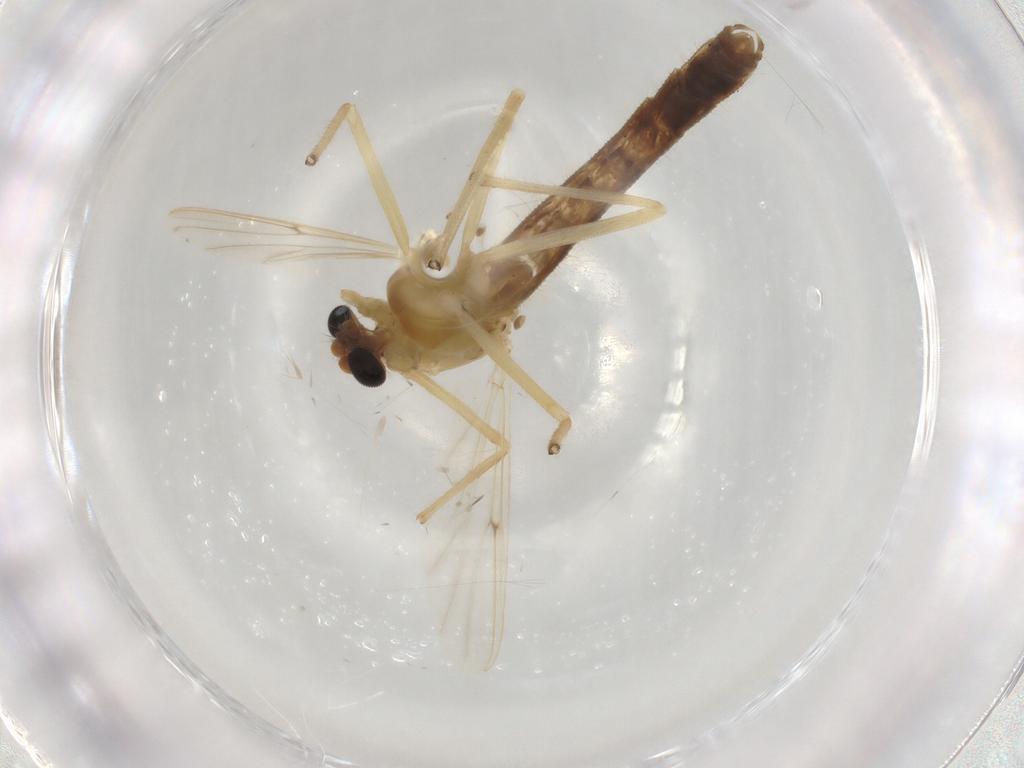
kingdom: Animalia
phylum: Arthropoda
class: Insecta
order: Diptera
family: Chironomidae
